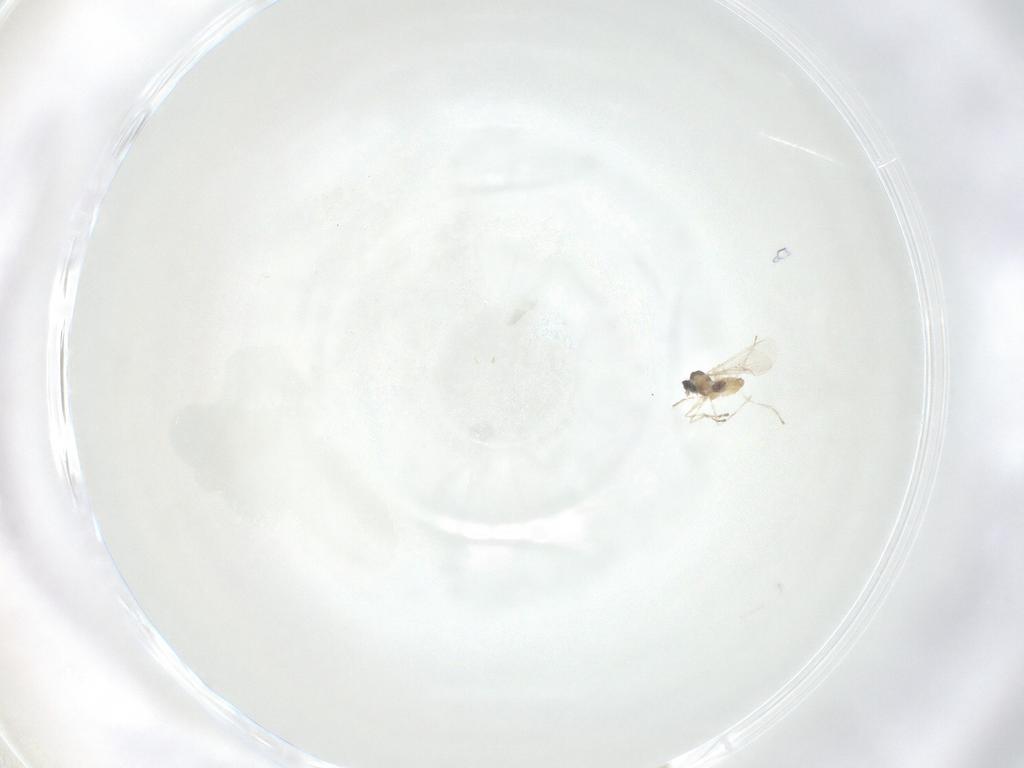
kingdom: Animalia
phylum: Arthropoda
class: Insecta
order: Diptera
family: Cecidomyiidae
